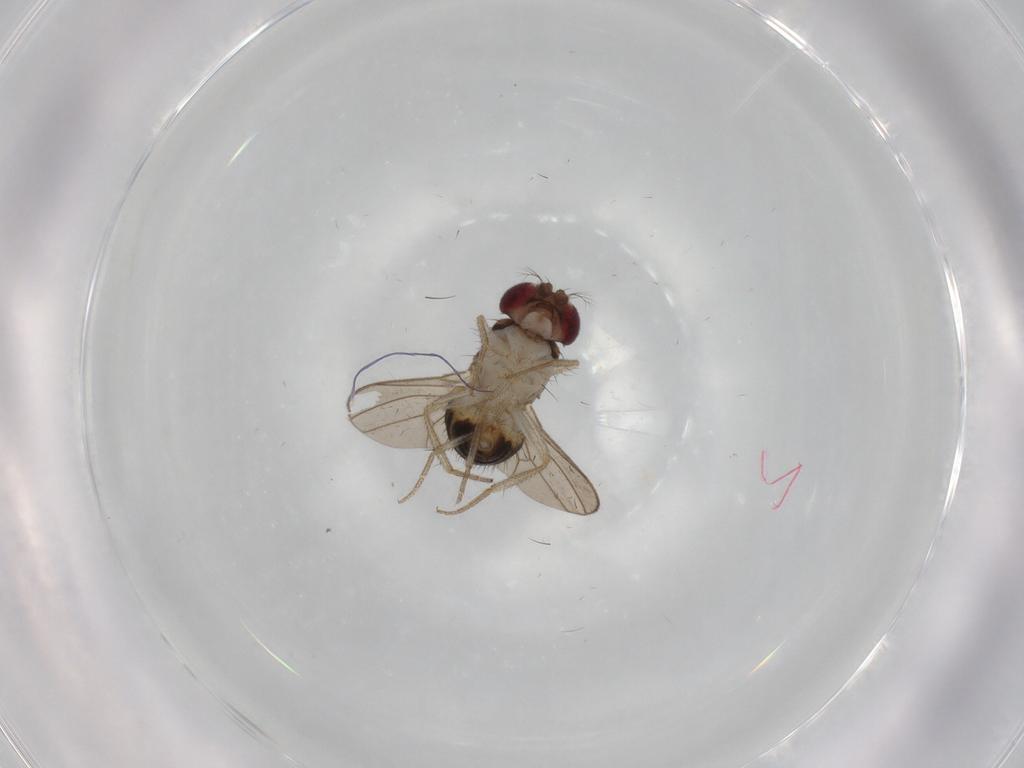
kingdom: Animalia
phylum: Arthropoda
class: Insecta
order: Diptera
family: Drosophilidae
